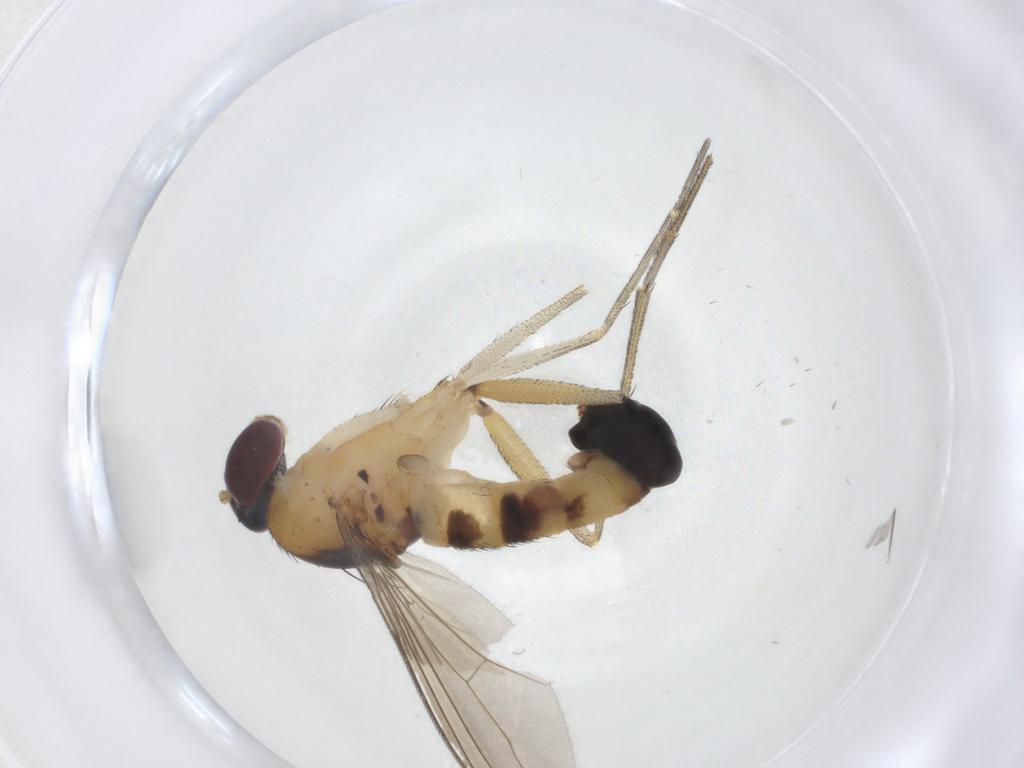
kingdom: Animalia
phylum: Arthropoda
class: Insecta
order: Diptera
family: Dolichopodidae
